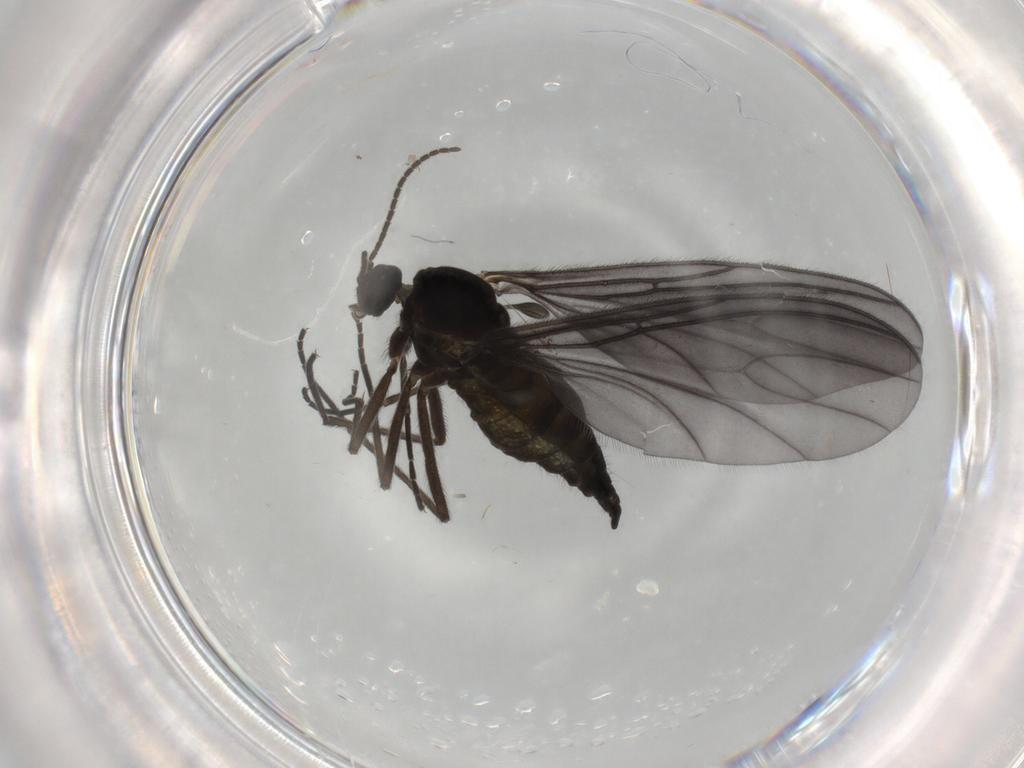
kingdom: Animalia
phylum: Arthropoda
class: Insecta
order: Diptera
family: Sciaridae
